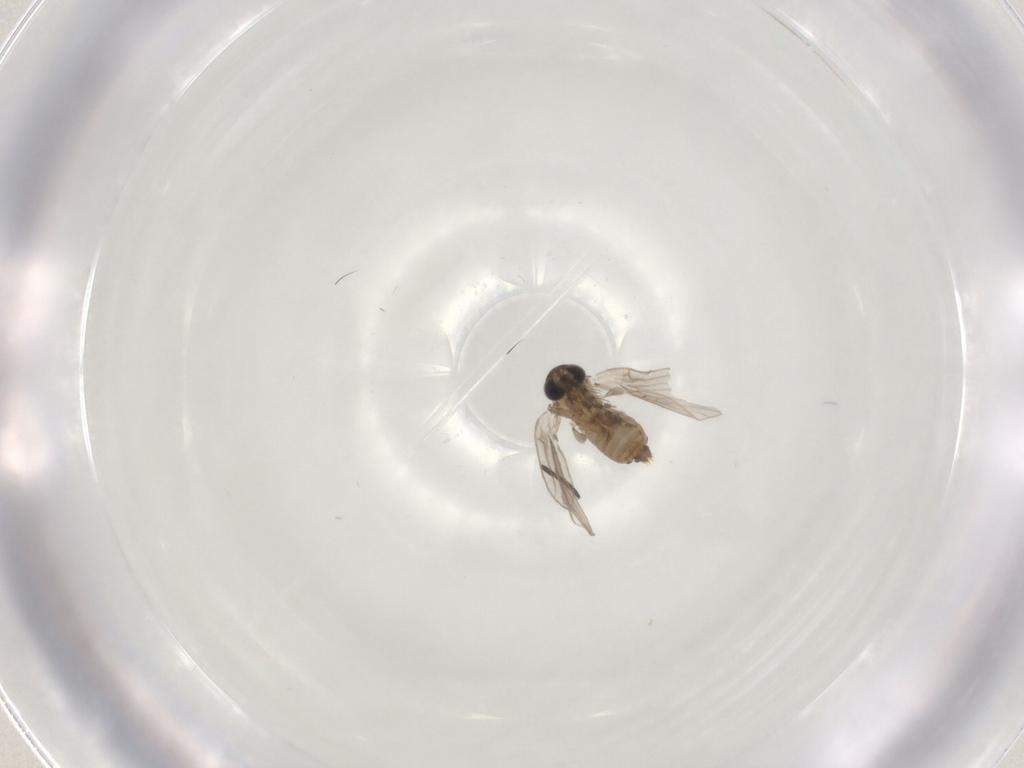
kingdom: Animalia
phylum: Arthropoda
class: Insecta
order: Diptera
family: Sciaridae
